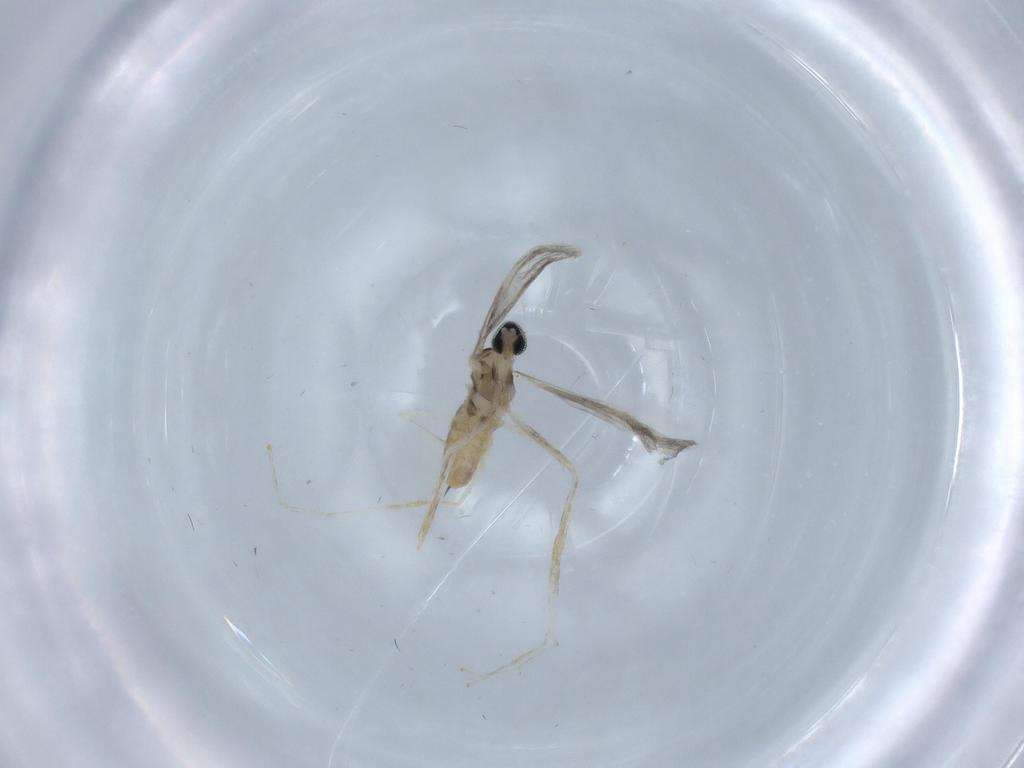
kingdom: Animalia
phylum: Arthropoda
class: Insecta
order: Diptera
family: Cecidomyiidae
